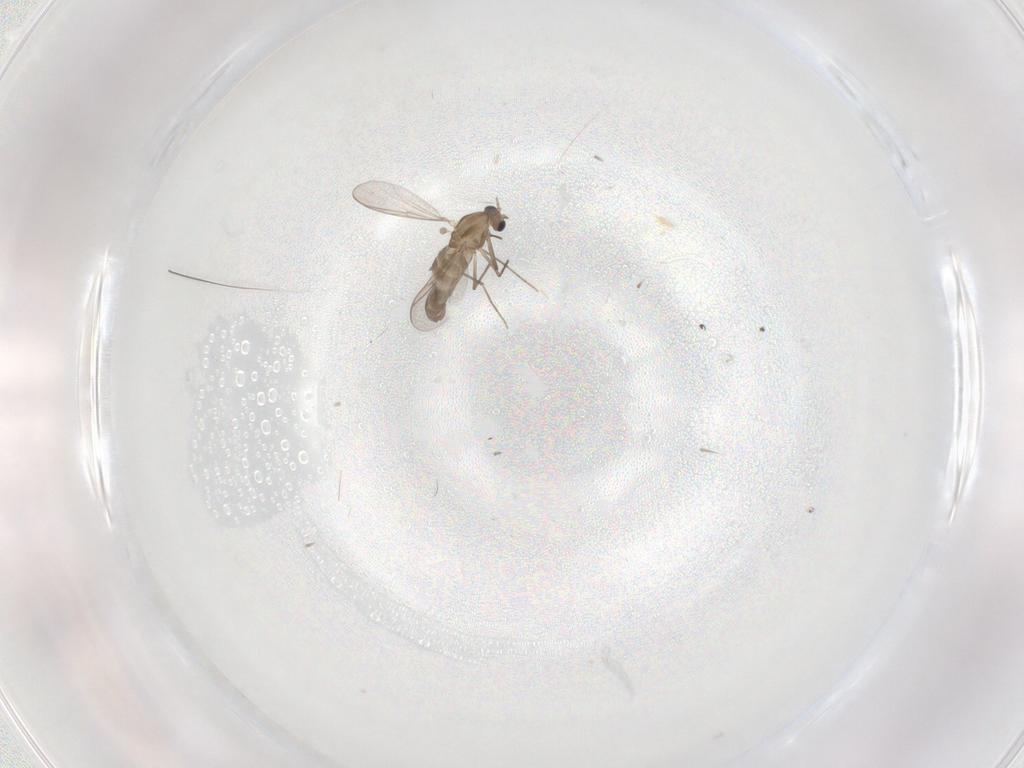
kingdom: Animalia
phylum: Arthropoda
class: Insecta
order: Diptera
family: Chironomidae
